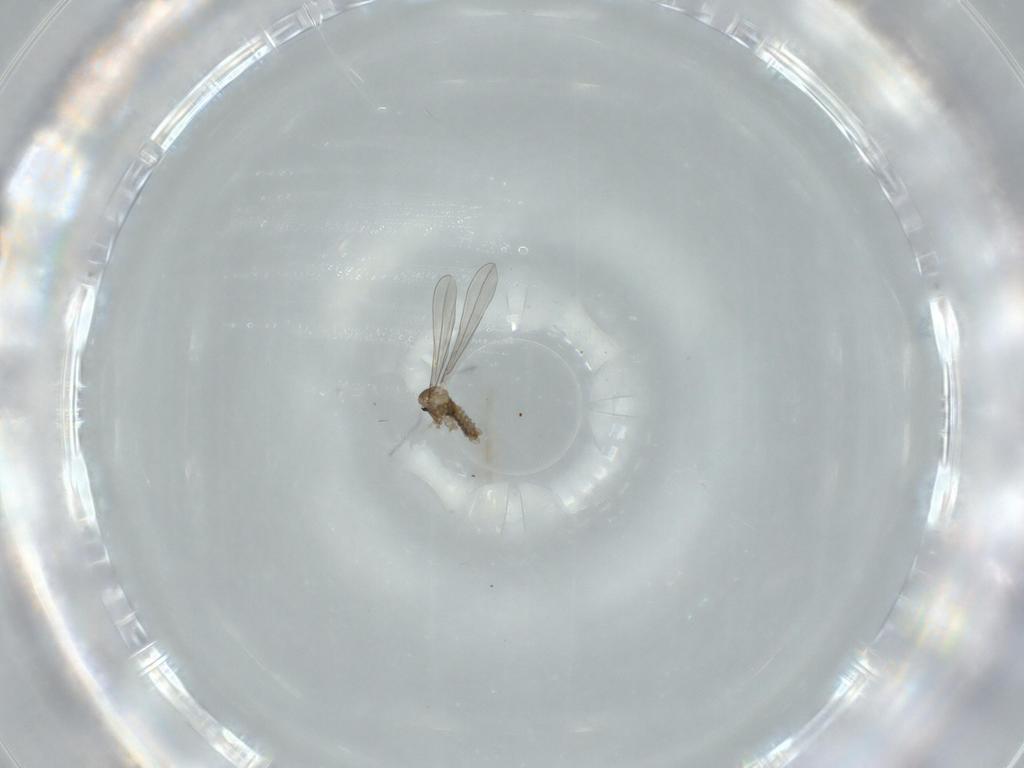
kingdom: Animalia
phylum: Arthropoda
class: Insecta
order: Diptera
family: Cecidomyiidae
